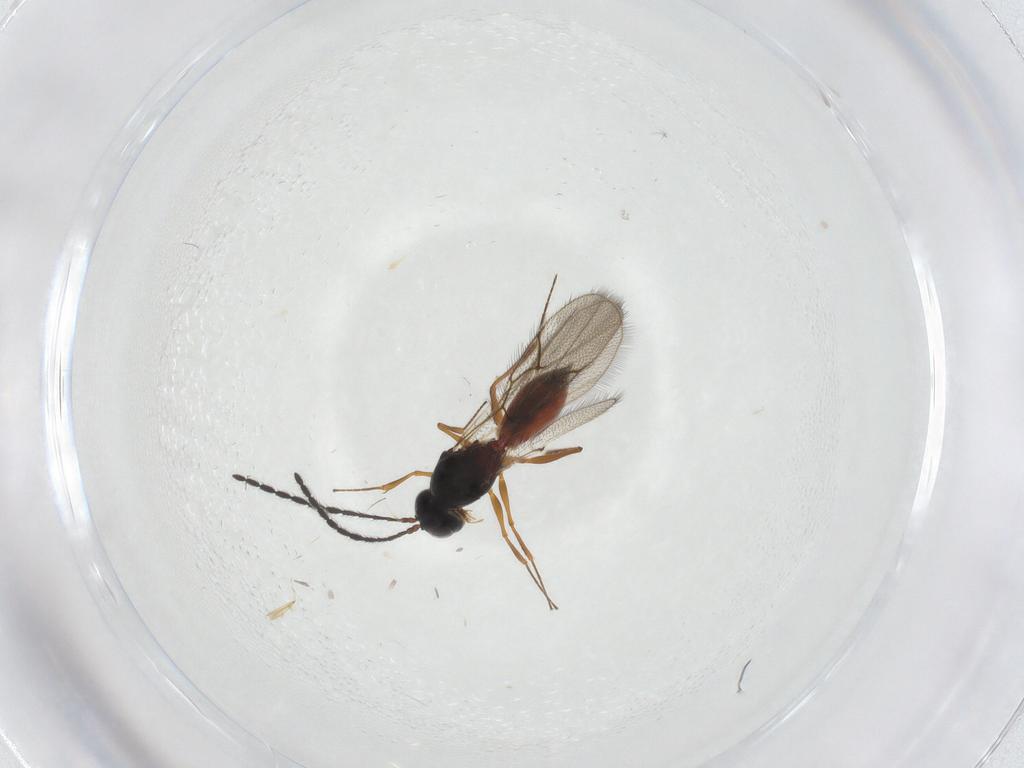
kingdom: Animalia
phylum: Arthropoda
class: Insecta
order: Hymenoptera
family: Figitidae
